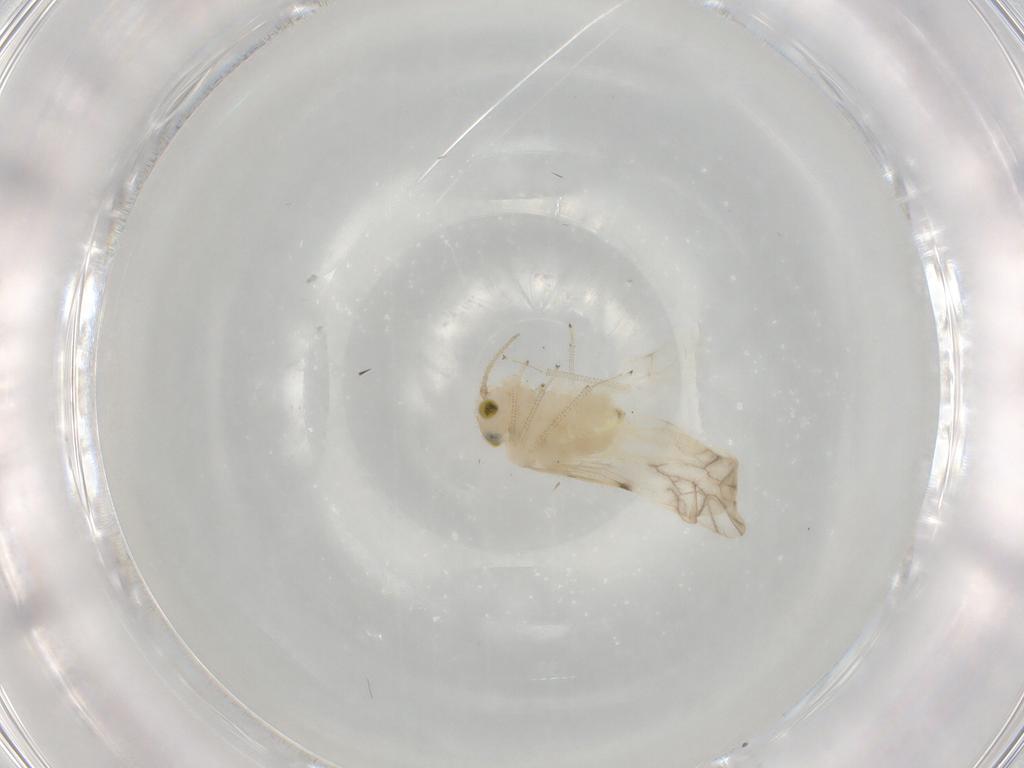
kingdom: Animalia
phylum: Arthropoda
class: Insecta
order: Psocodea
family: Caeciliusidae
